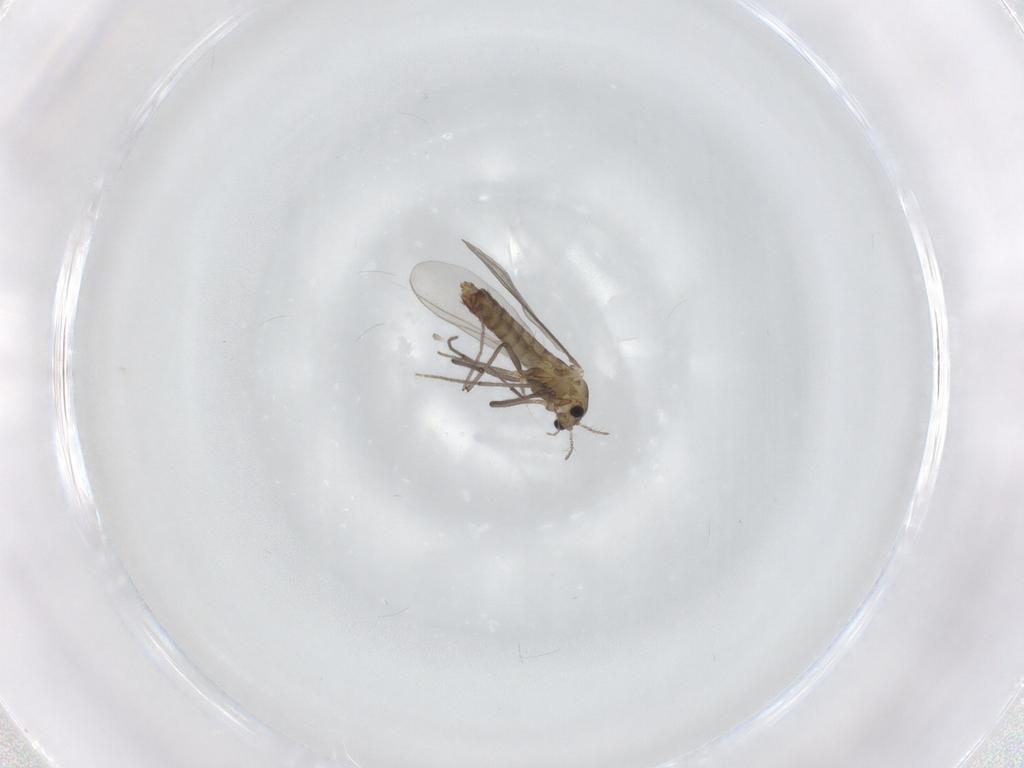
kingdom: Animalia
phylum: Arthropoda
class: Insecta
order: Diptera
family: Chironomidae
